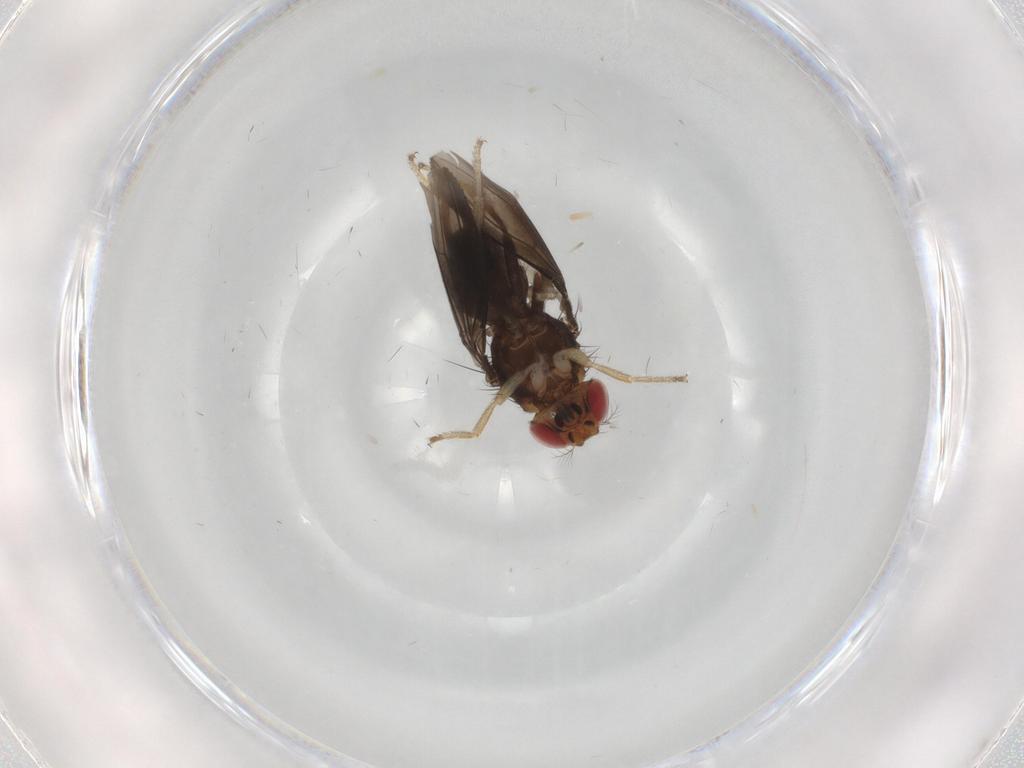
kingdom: Animalia
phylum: Arthropoda
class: Insecta
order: Diptera
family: Drosophilidae
